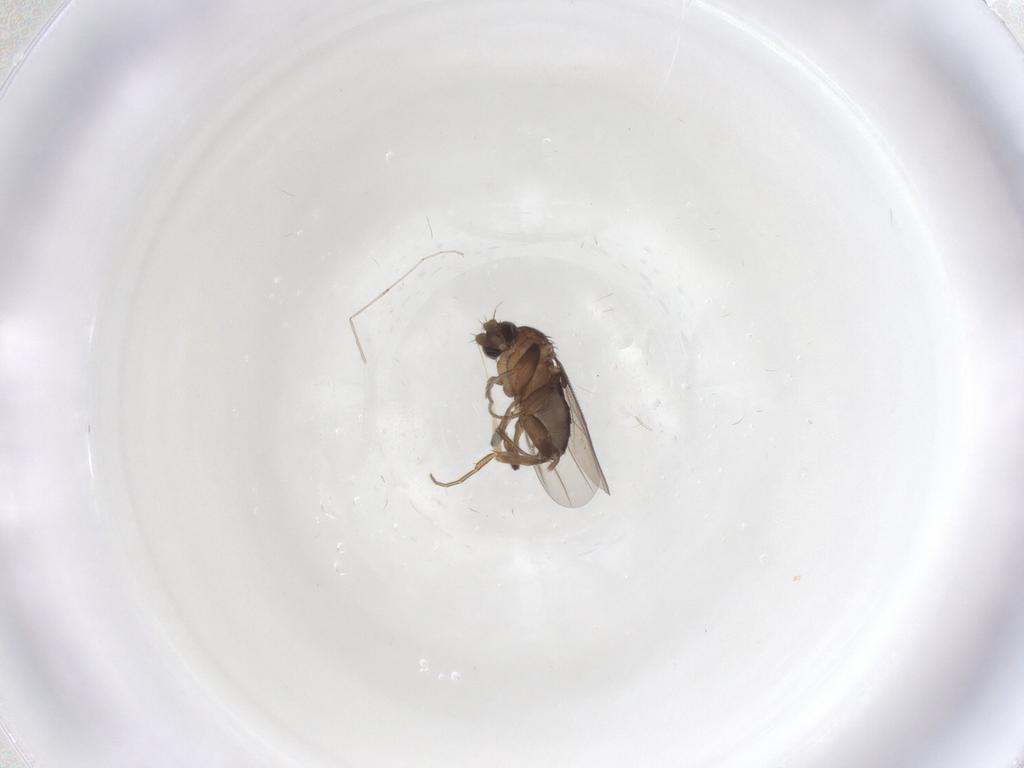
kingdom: Animalia
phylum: Arthropoda
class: Insecta
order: Diptera
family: Phoridae
